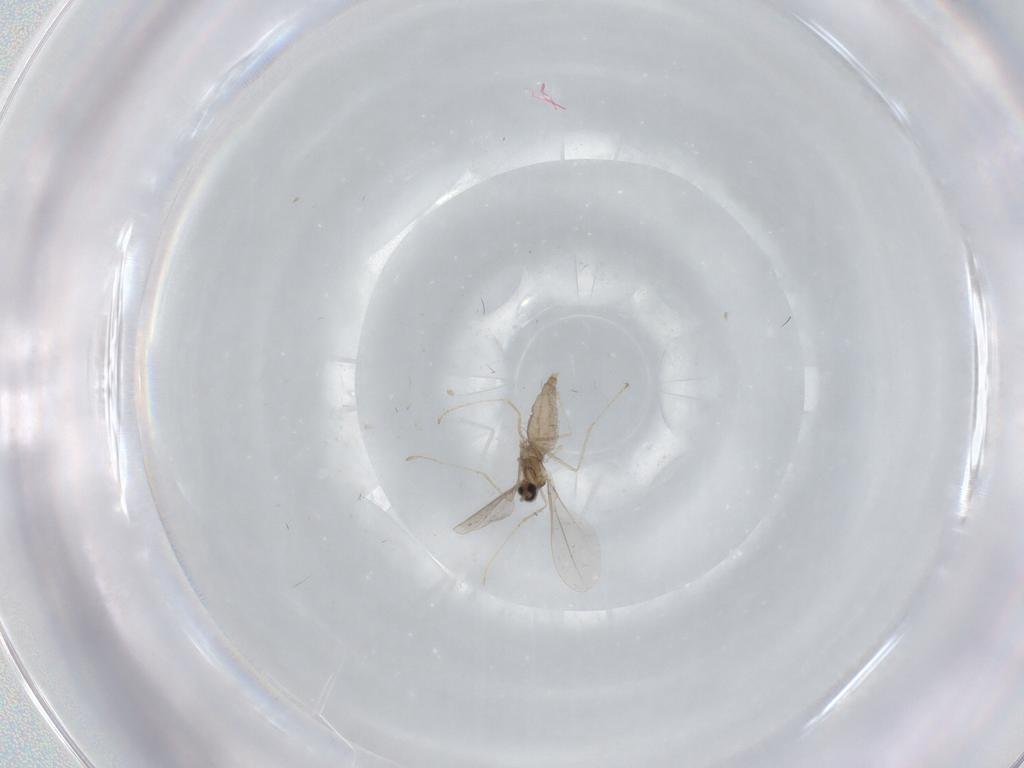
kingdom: Animalia
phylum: Arthropoda
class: Insecta
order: Diptera
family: Cecidomyiidae
